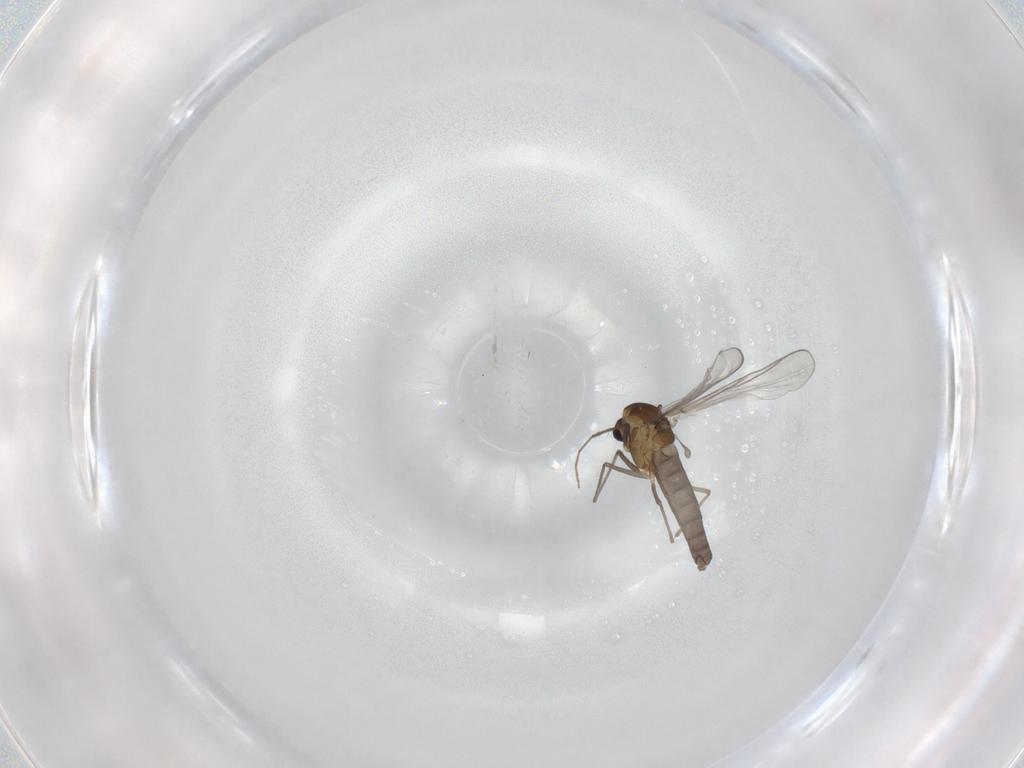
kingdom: Animalia
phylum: Arthropoda
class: Insecta
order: Diptera
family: Chironomidae
